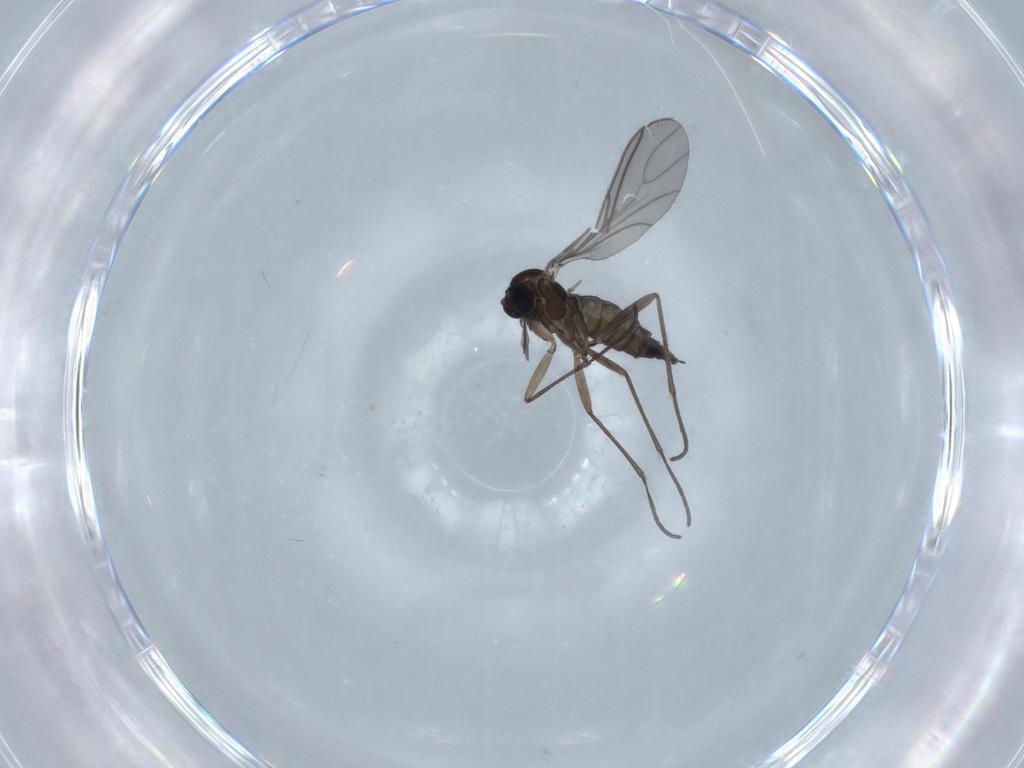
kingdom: Animalia
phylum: Arthropoda
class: Insecta
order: Diptera
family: Sciaridae
